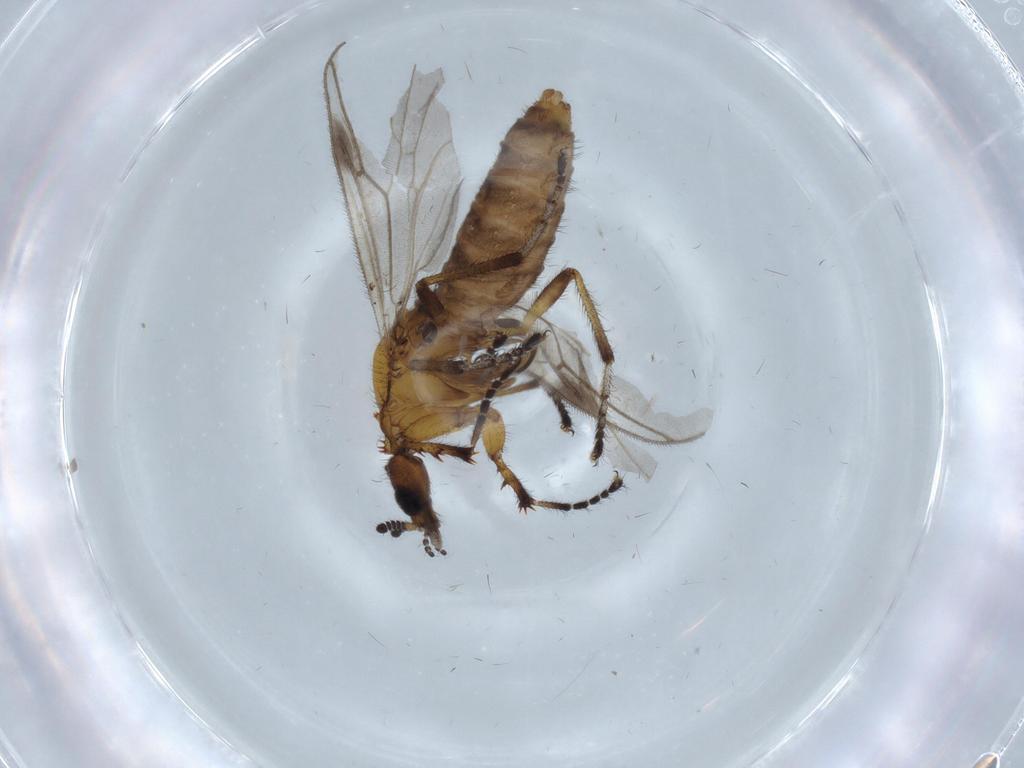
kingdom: Animalia
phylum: Arthropoda
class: Insecta
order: Diptera
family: Bibionidae
